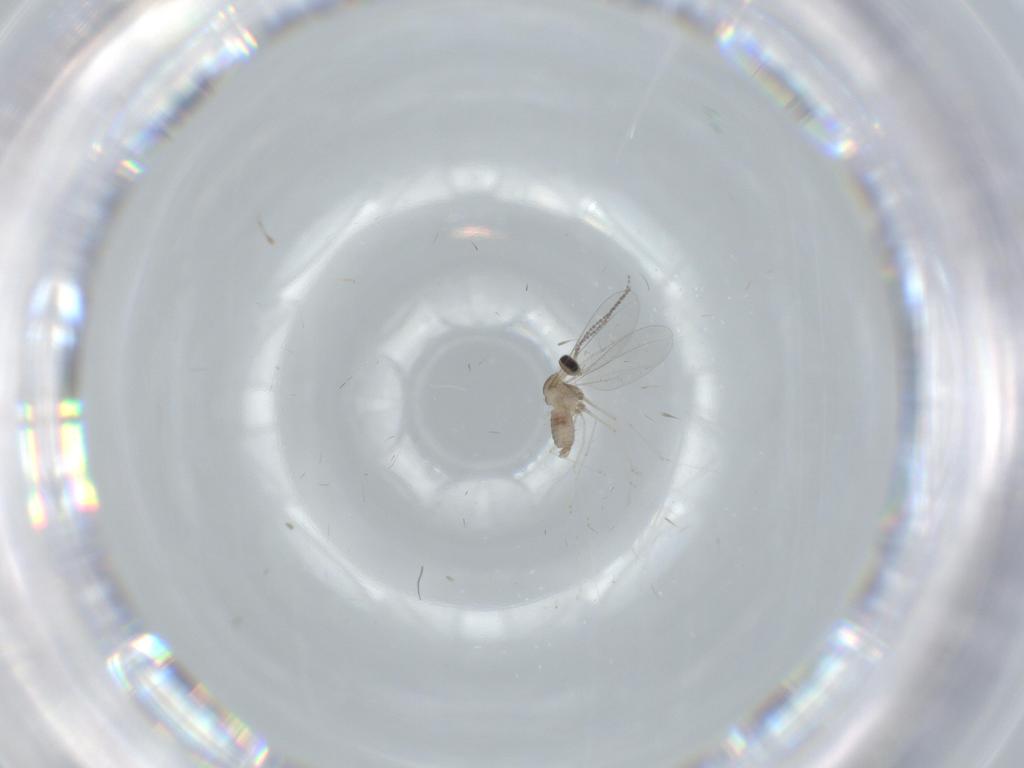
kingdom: Animalia
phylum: Arthropoda
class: Insecta
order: Diptera
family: Cecidomyiidae
